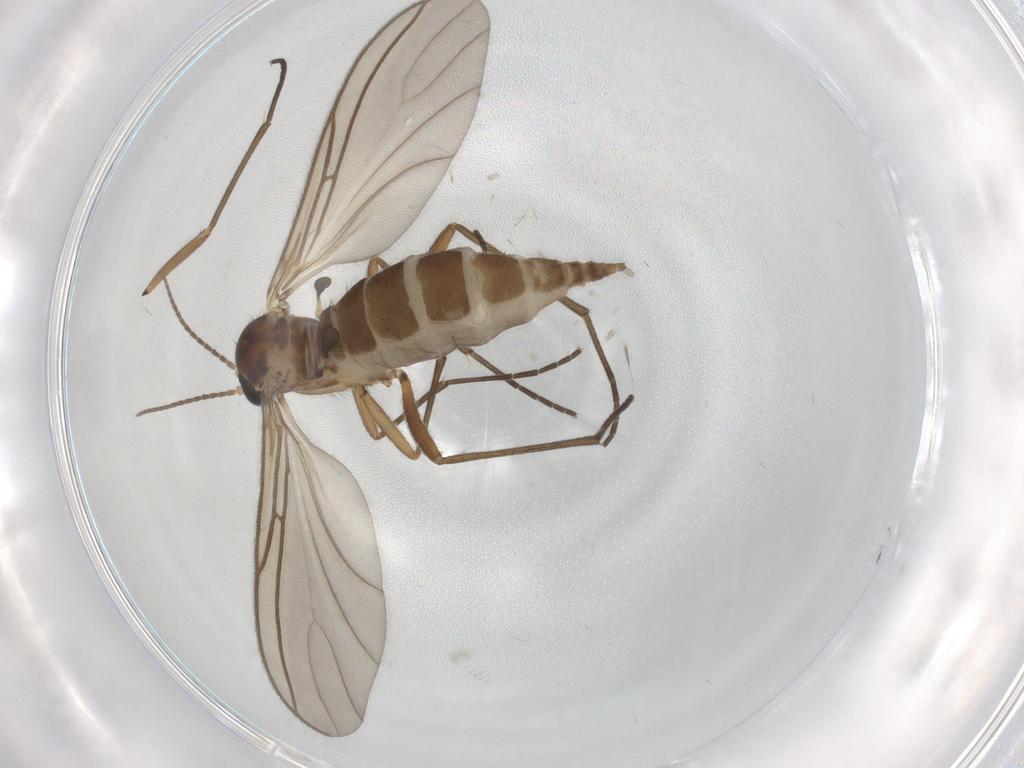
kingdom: Animalia
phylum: Arthropoda
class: Insecta
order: Diptera
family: Sciaridae
